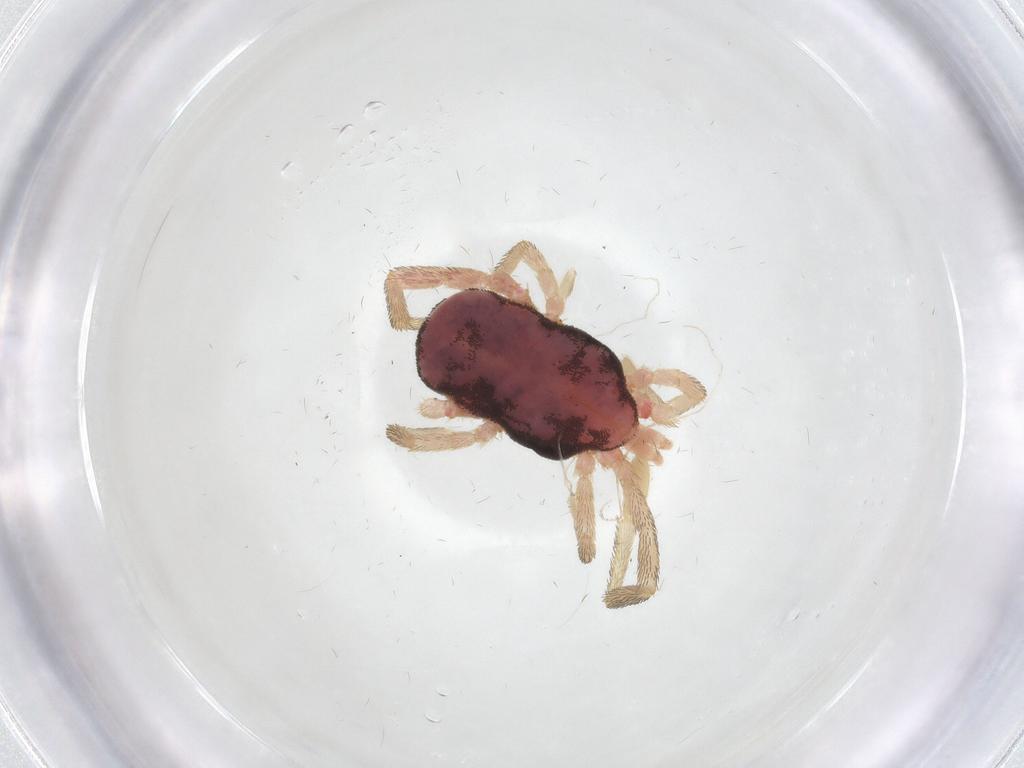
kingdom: Animalia
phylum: Arthropoda
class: Arachnida
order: Trombidiformes
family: Erythraeidae
